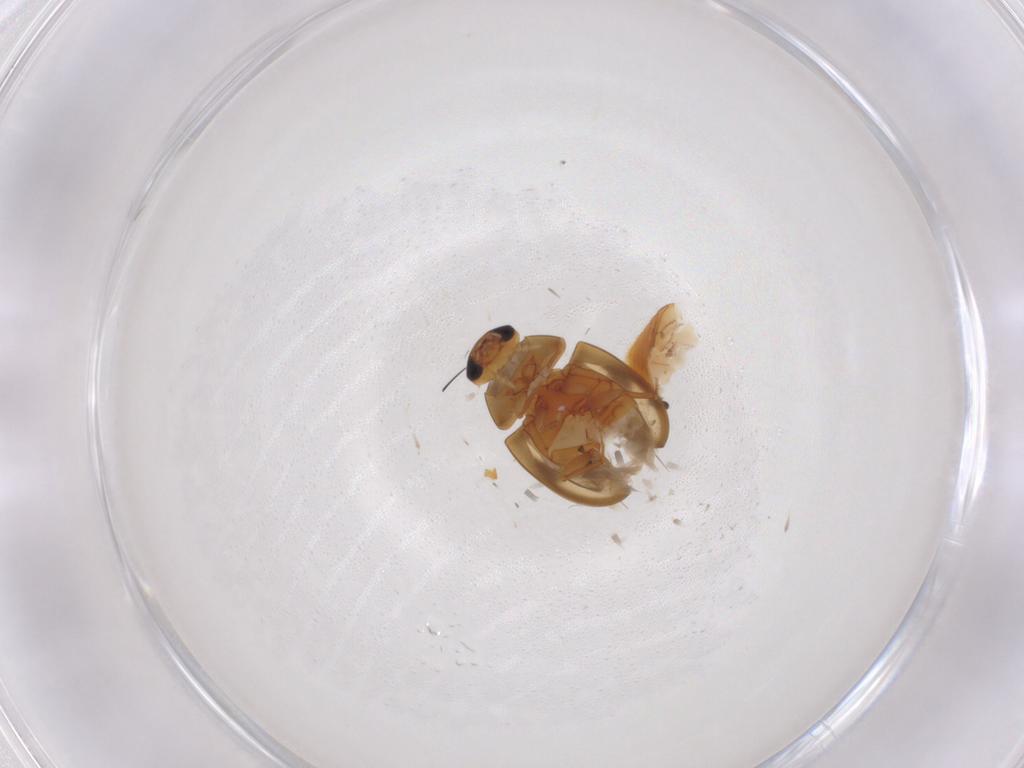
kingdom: Animalia
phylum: Arthropoda
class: Insecta
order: Coleoptera
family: Phalacridae
